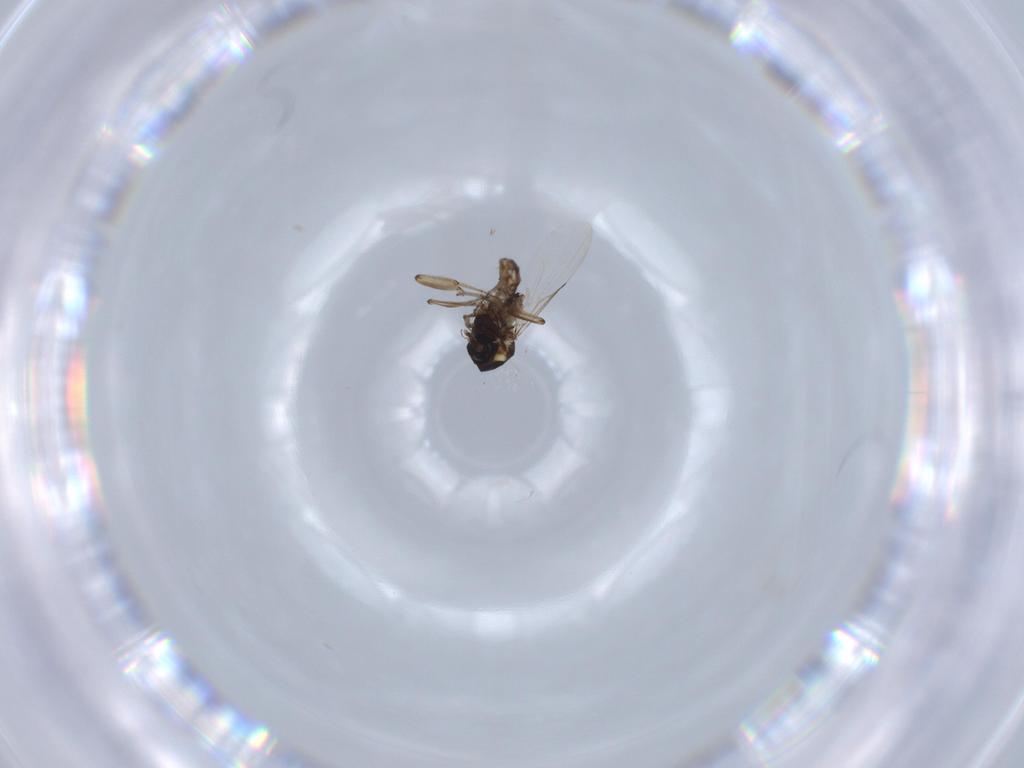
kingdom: Animalia
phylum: Arthropoda
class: Insecta
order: Diptera
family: Ceratopogonidae
